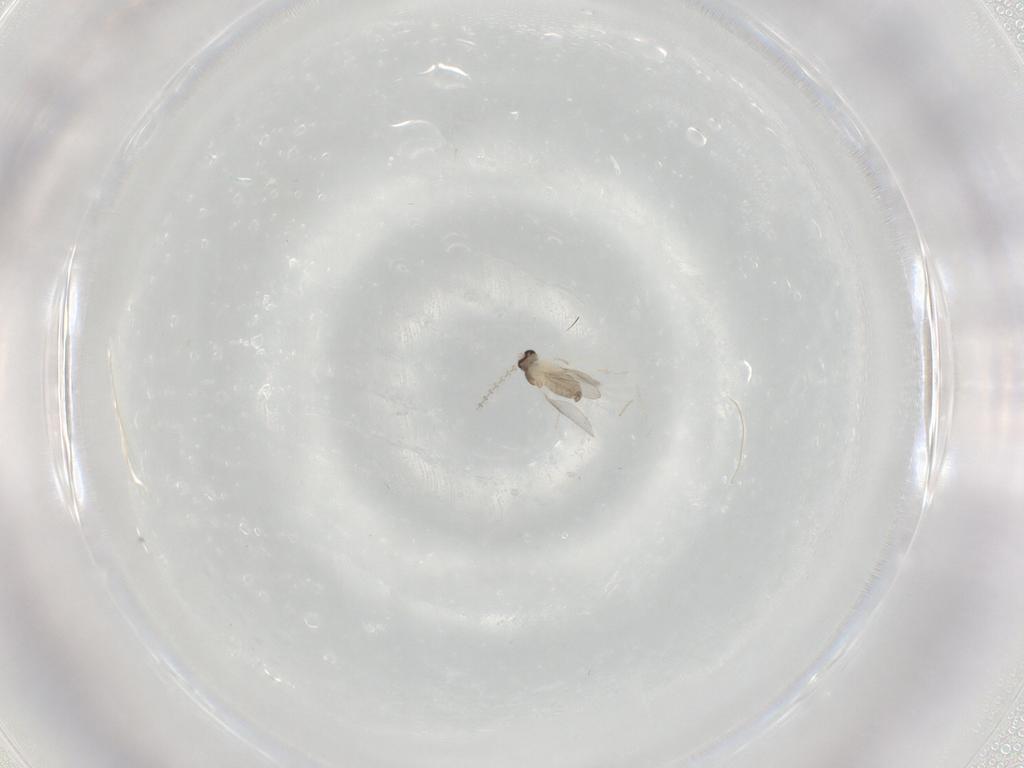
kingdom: Animalia
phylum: Arthropoda
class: Insecta
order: Diptera
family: Cecidomyiidae
